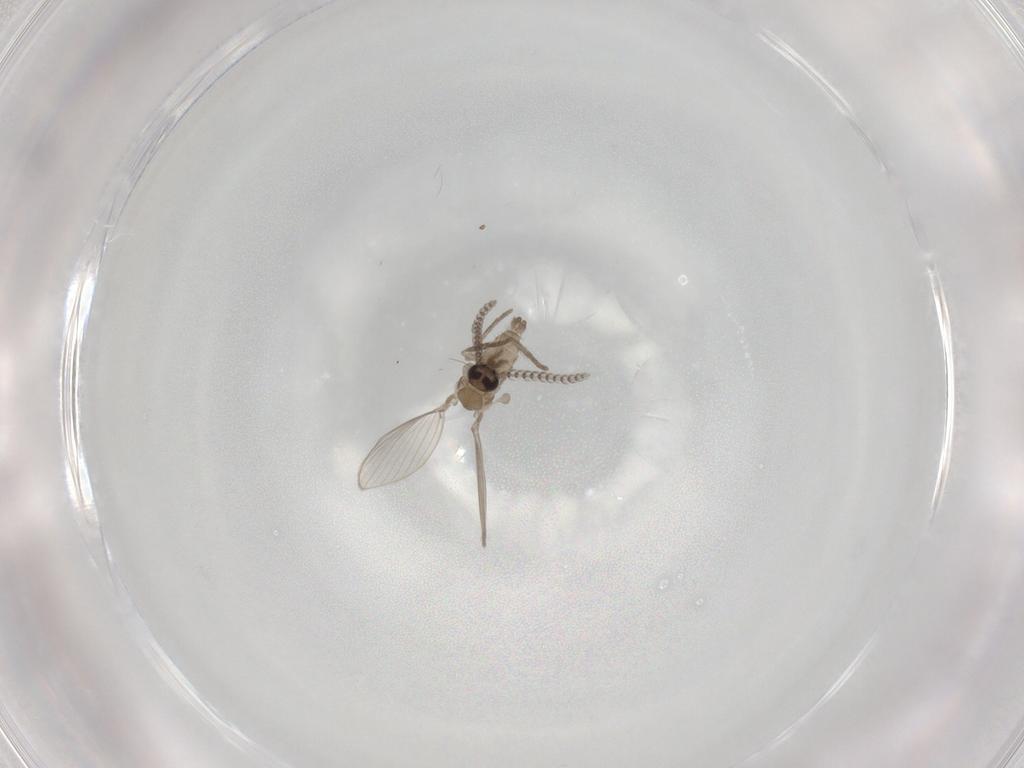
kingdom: Animalia
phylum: Arthropoda
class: Insecta
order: Diptera
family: Psychodidae
